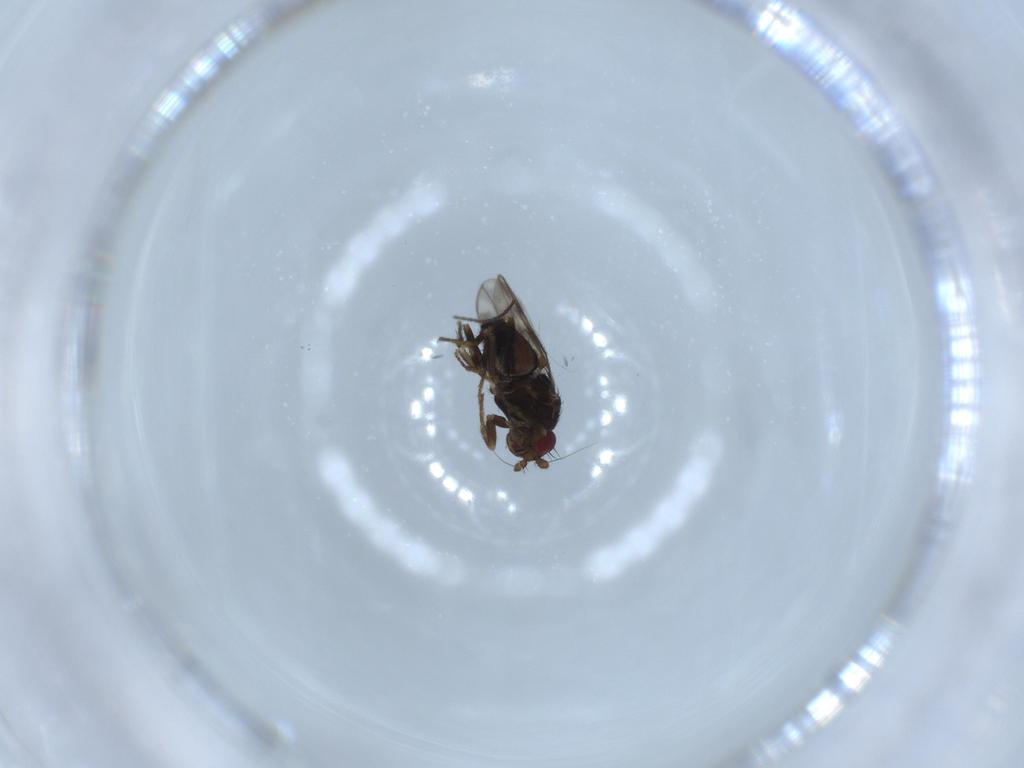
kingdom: Animalia
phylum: Arthropoda
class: Insecta
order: Diptera
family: Sphaeroceridae
